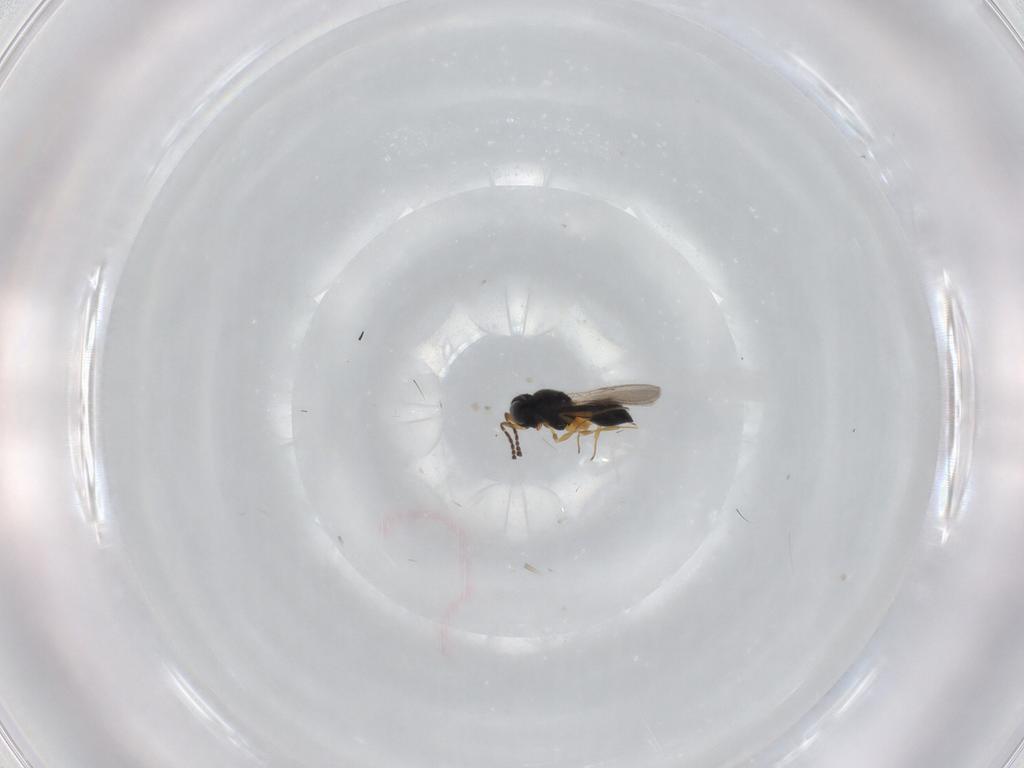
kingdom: Animalia
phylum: Arthropoda
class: Insecta
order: Hymenoptera
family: Scelionidae
